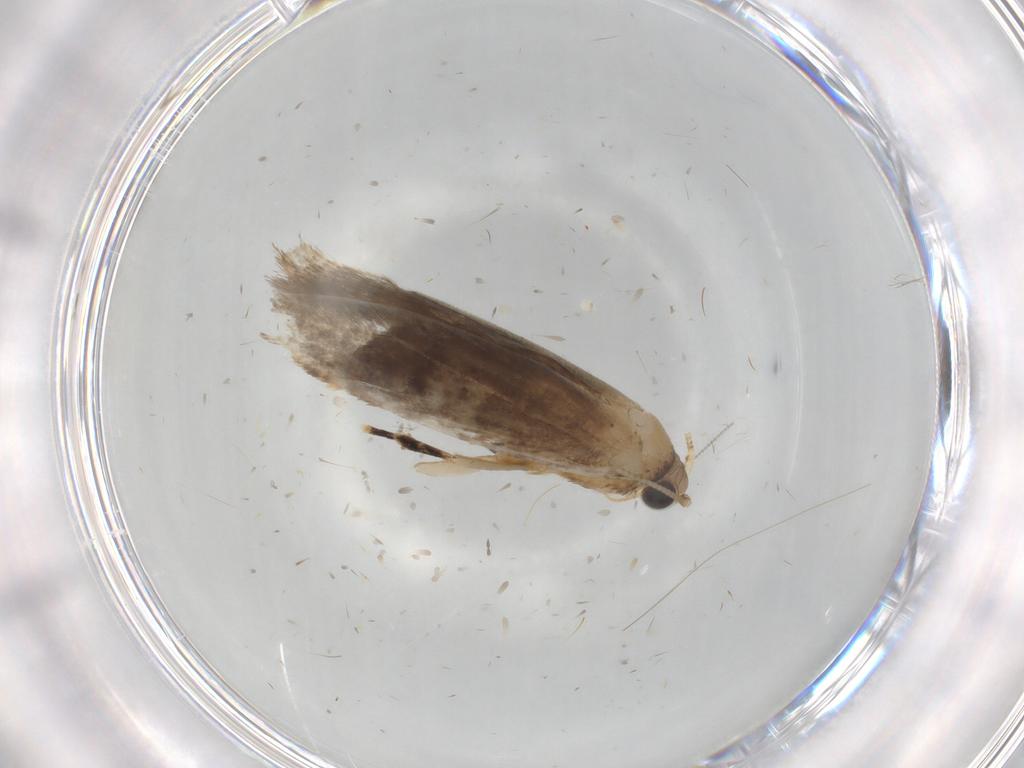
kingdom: Animalia
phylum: Arthropoda
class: Insecta
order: Lepidoptera
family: Tineidae
